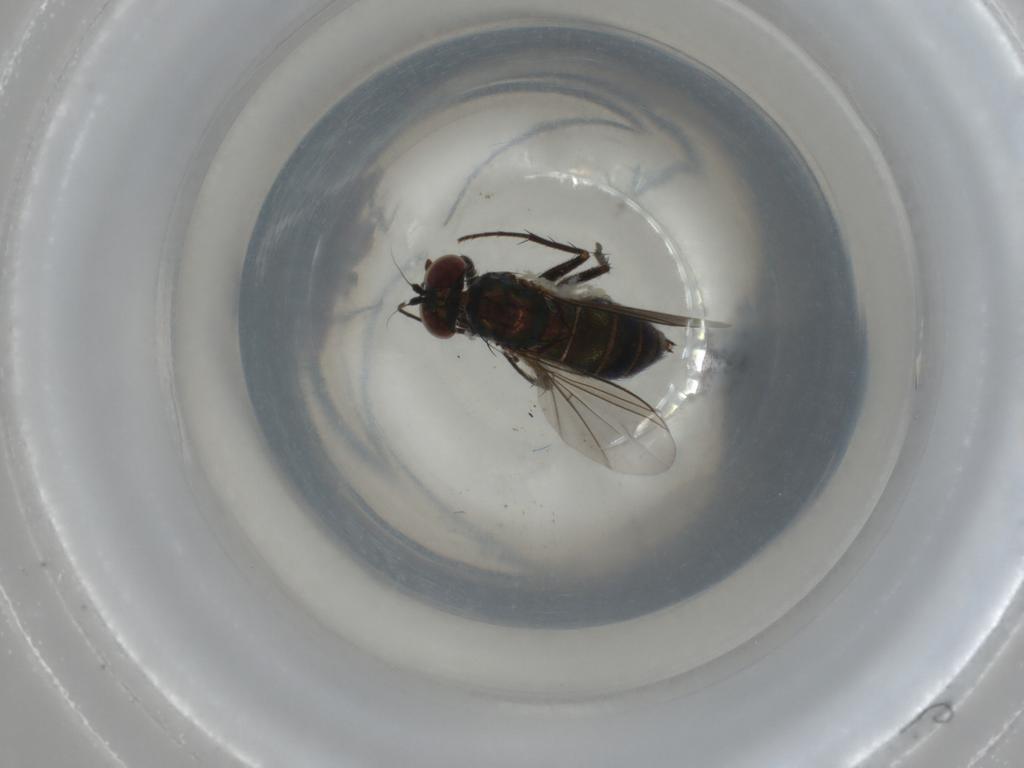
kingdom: Animalia
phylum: Arthropoda
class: Insecta
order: Diptera
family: Dolichopodidae
